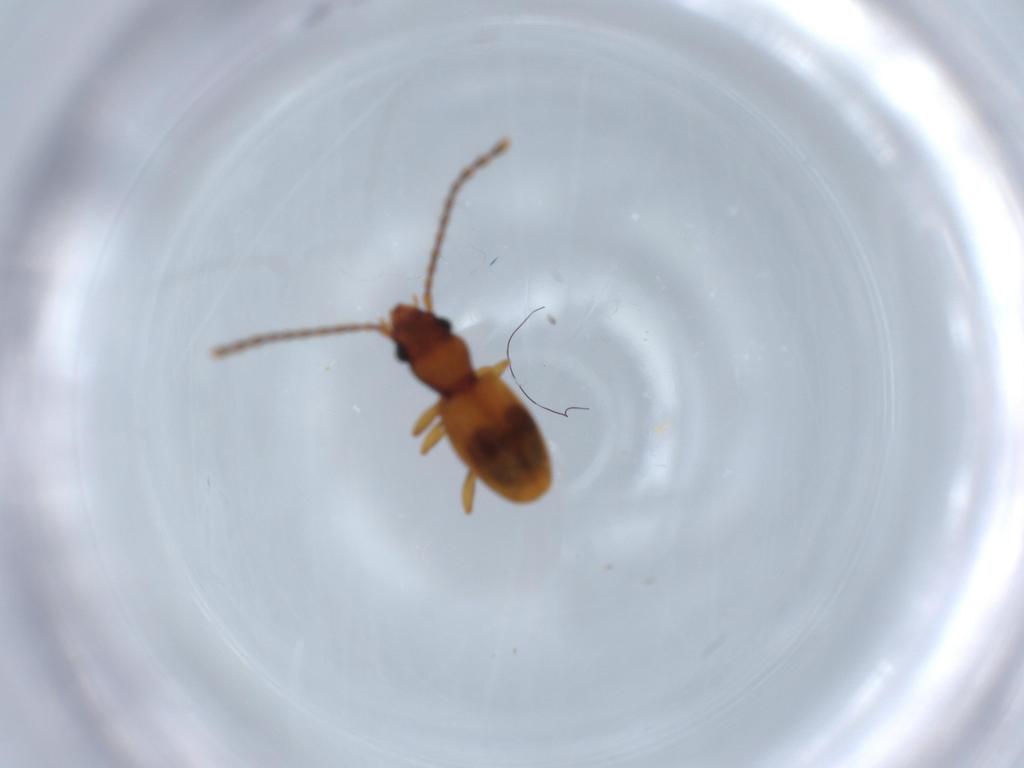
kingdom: Animalia
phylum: Arthropoda
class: Insecta
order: Coleoptera
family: Laemophloeidae
